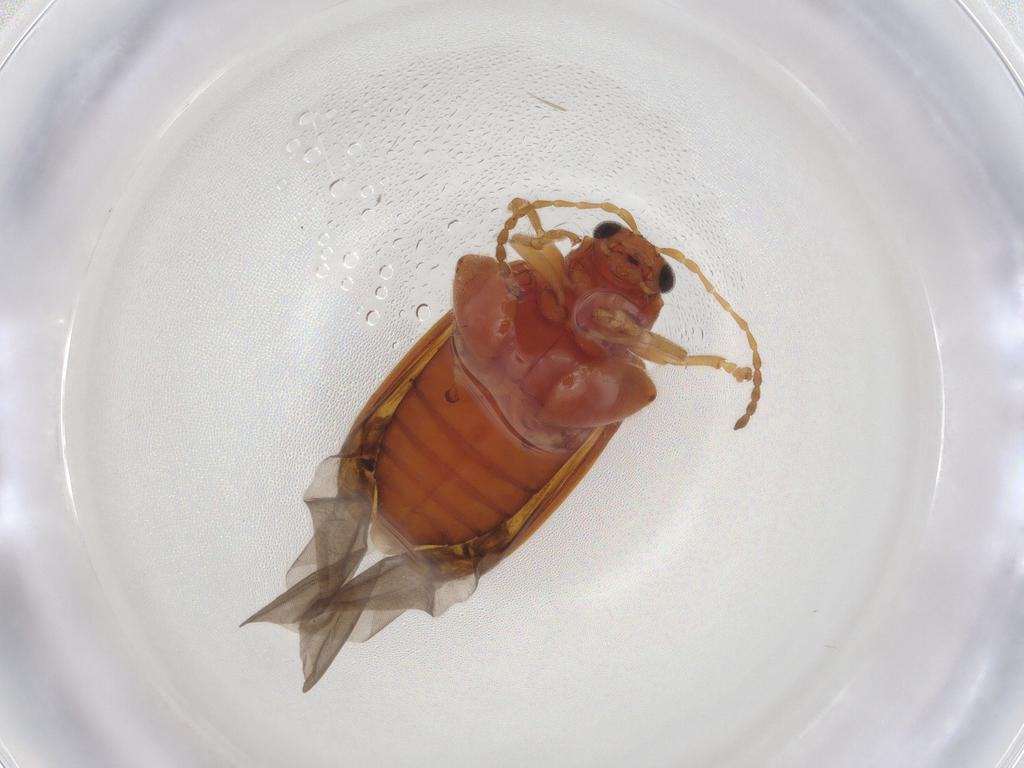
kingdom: Animalia
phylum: Arthropoda
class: Insecta
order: Coleoptera
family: Chrysomelidae
